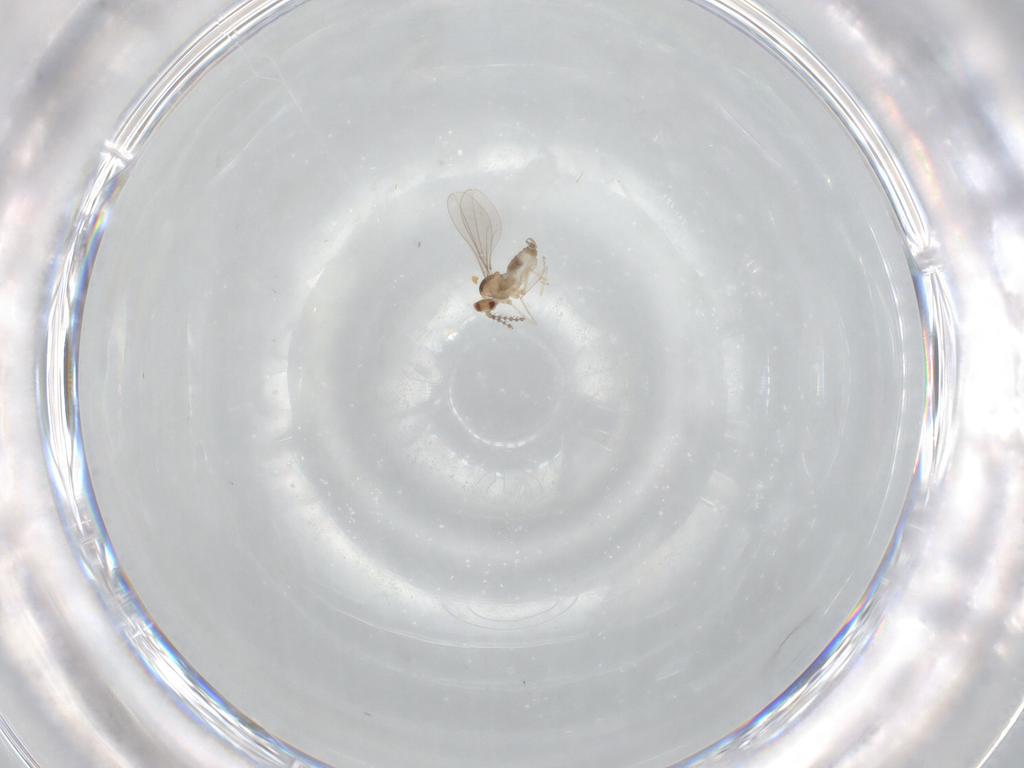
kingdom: Animalia
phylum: Arthropoda
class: Insecta
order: Diptera
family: Cecidomyiidae
